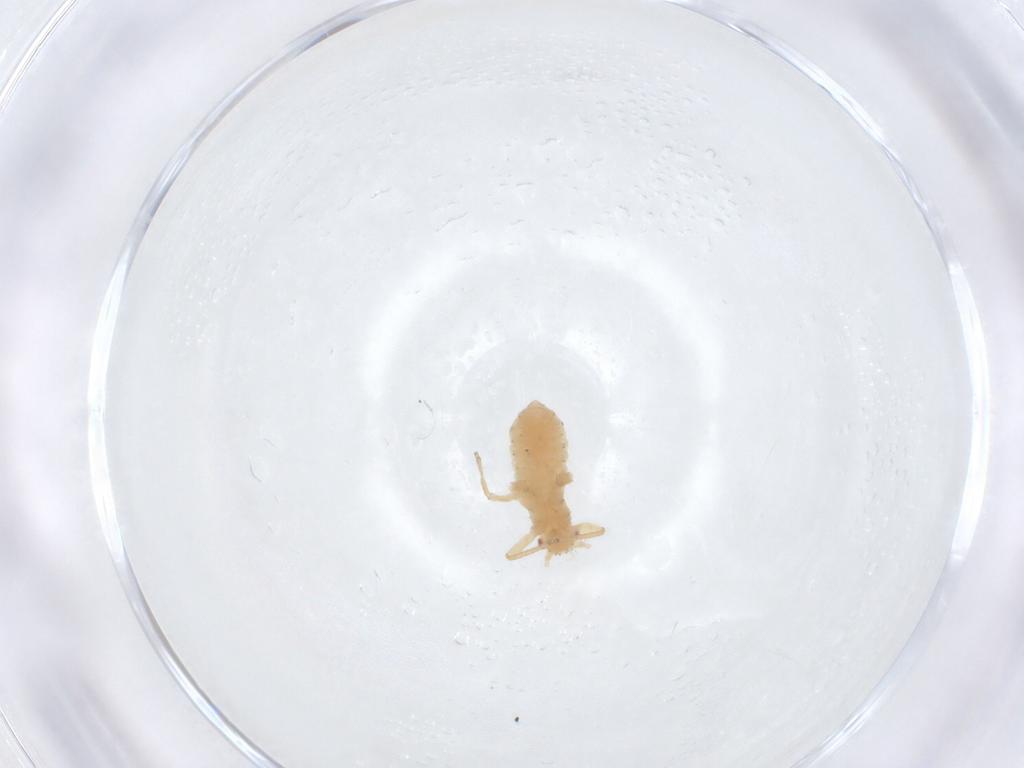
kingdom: Animalia
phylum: Arthropoda
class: Insecta
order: Hemiptera
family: Aphididae
